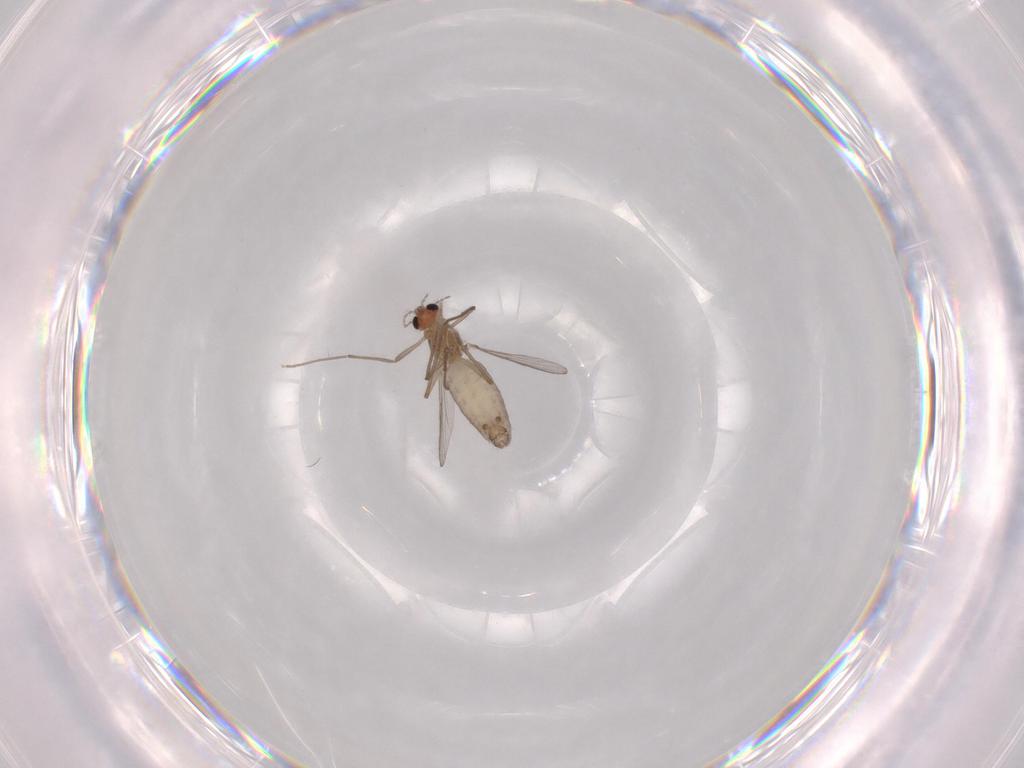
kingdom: Animalia
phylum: Arthropoda
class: Insecta
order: Diptera
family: Chironomidae
